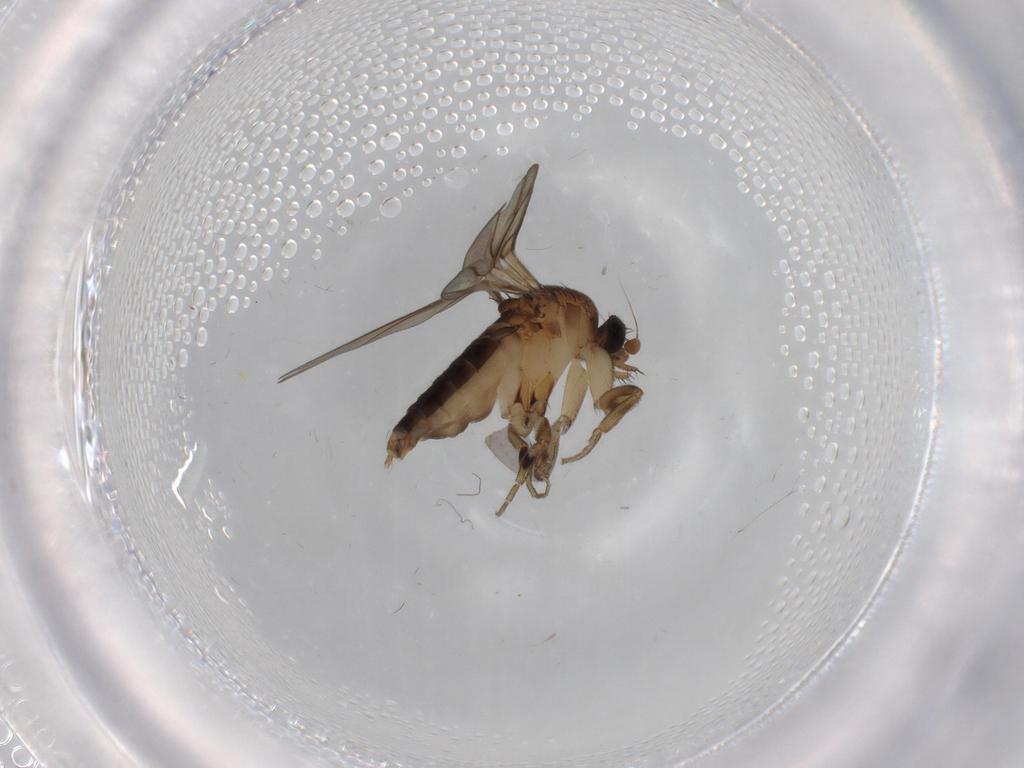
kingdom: Animalia
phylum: Arthropoda
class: Insecta
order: Diptera
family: Phoridae
